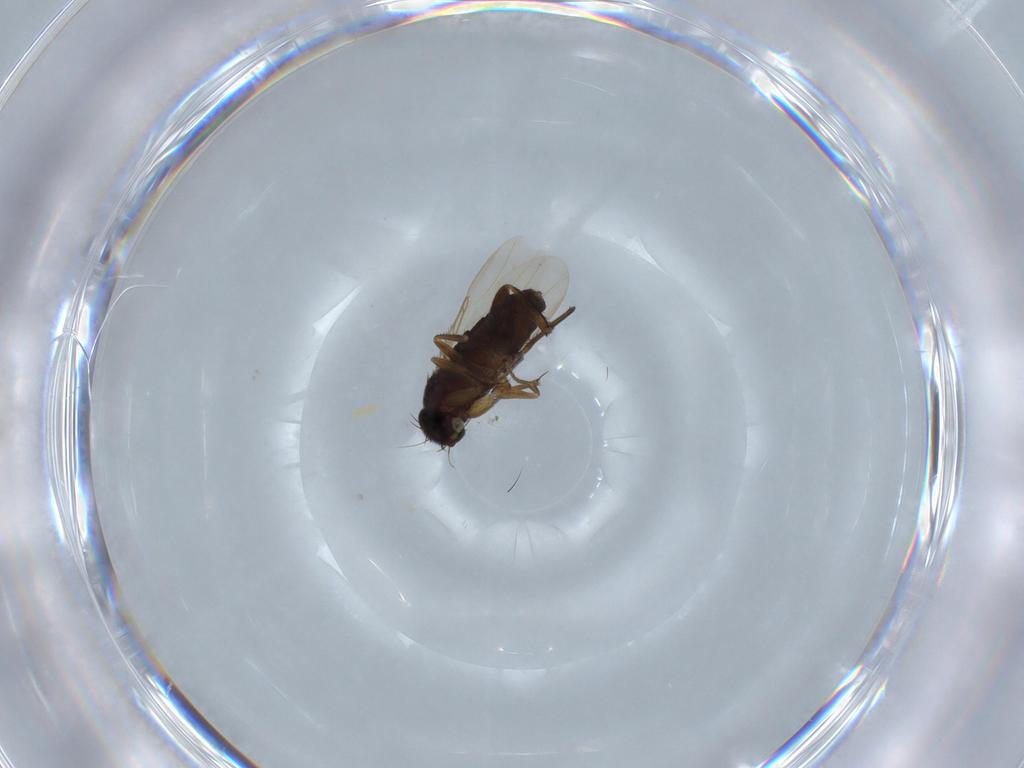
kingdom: Animalia
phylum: Arthropoda
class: Insecta
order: Diptera
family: Phoridae
